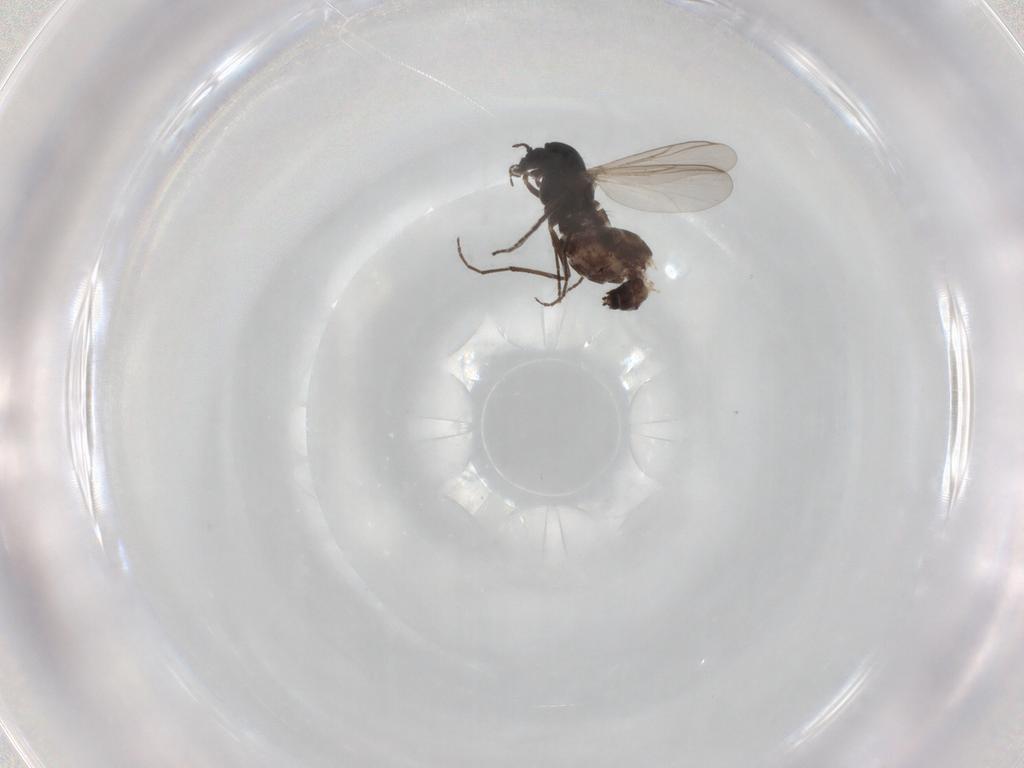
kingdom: Animalia
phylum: Arthropoda
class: Insecta
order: Diptera
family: Chironomidae
